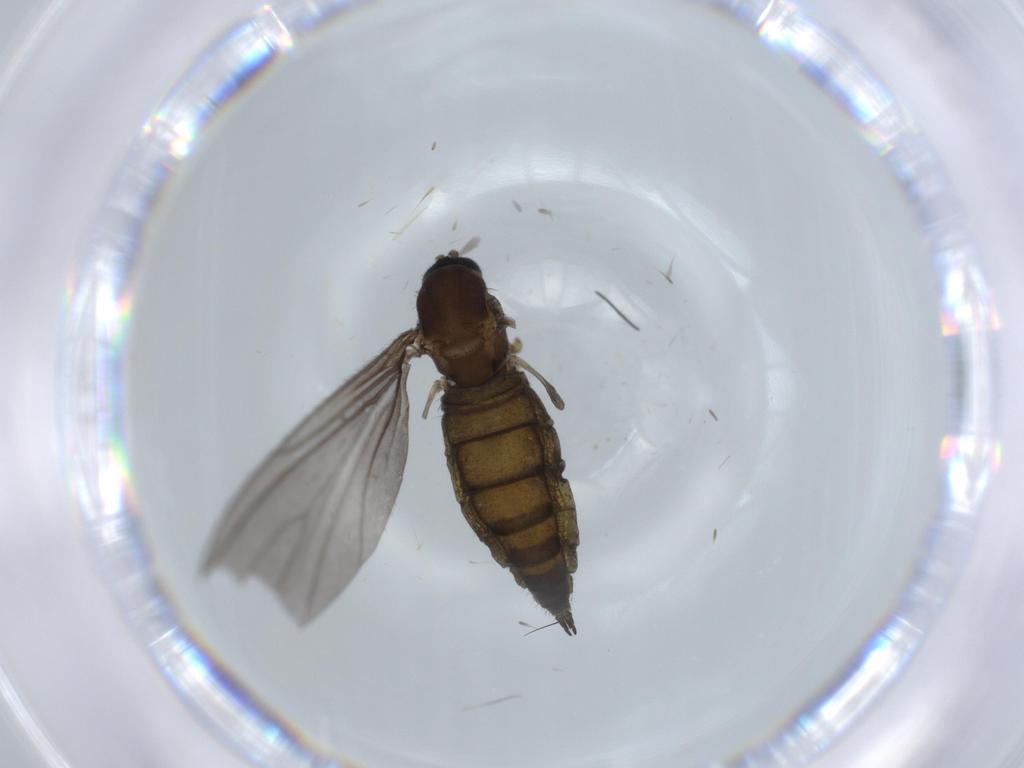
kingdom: Animalia
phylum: Arthropoda
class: Insecta
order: Diptera
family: Sciaridae
